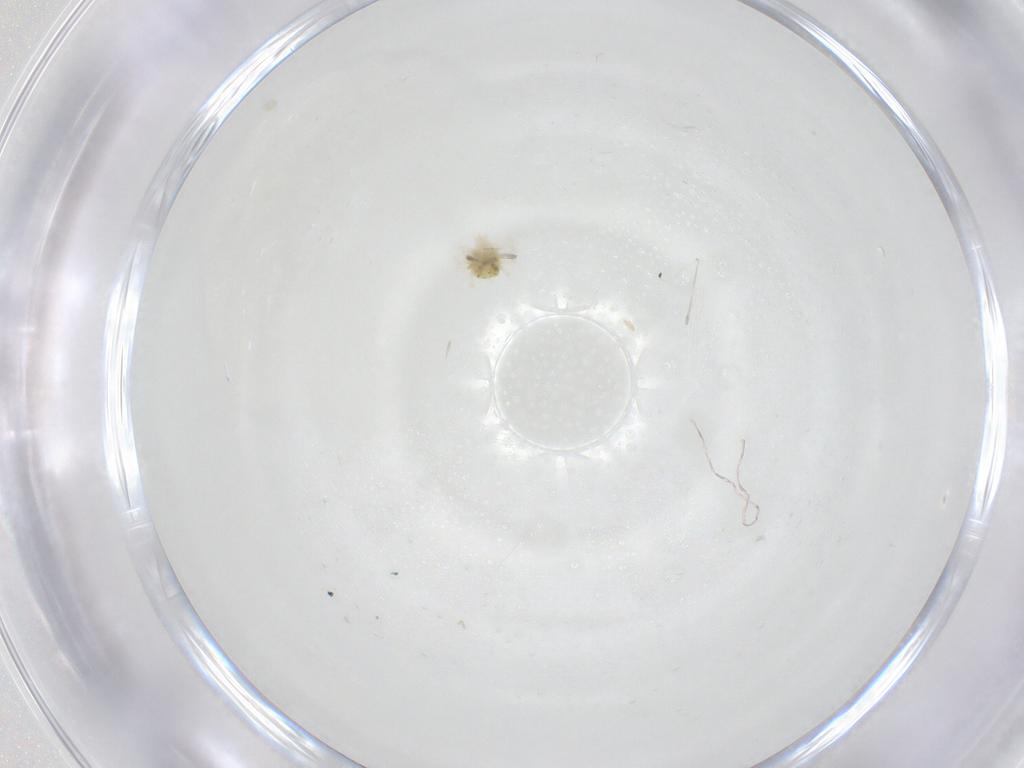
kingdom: Animalia
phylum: Arthropoda
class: Arachnida
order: Trombidiformes
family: Anystidae
